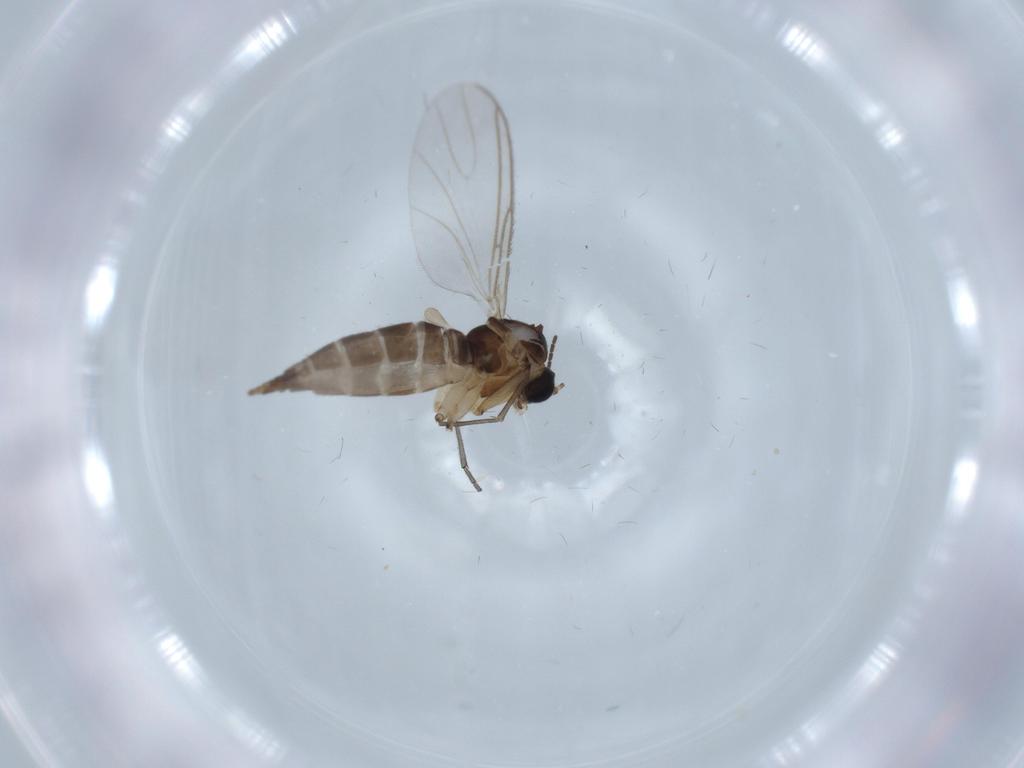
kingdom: Animalia
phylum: Arthropoda
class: Insecta
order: Diptera
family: Sciaridae
